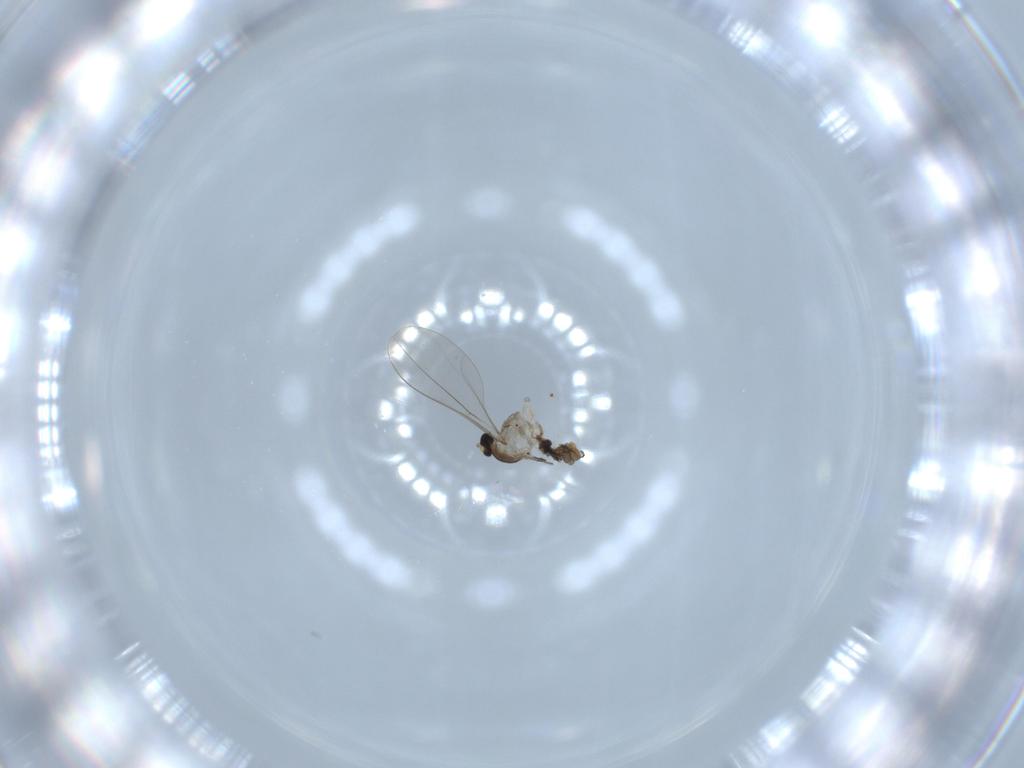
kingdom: Animalia
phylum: Arthropoda
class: Insecta
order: Diptera
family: Cecidomyiidae
